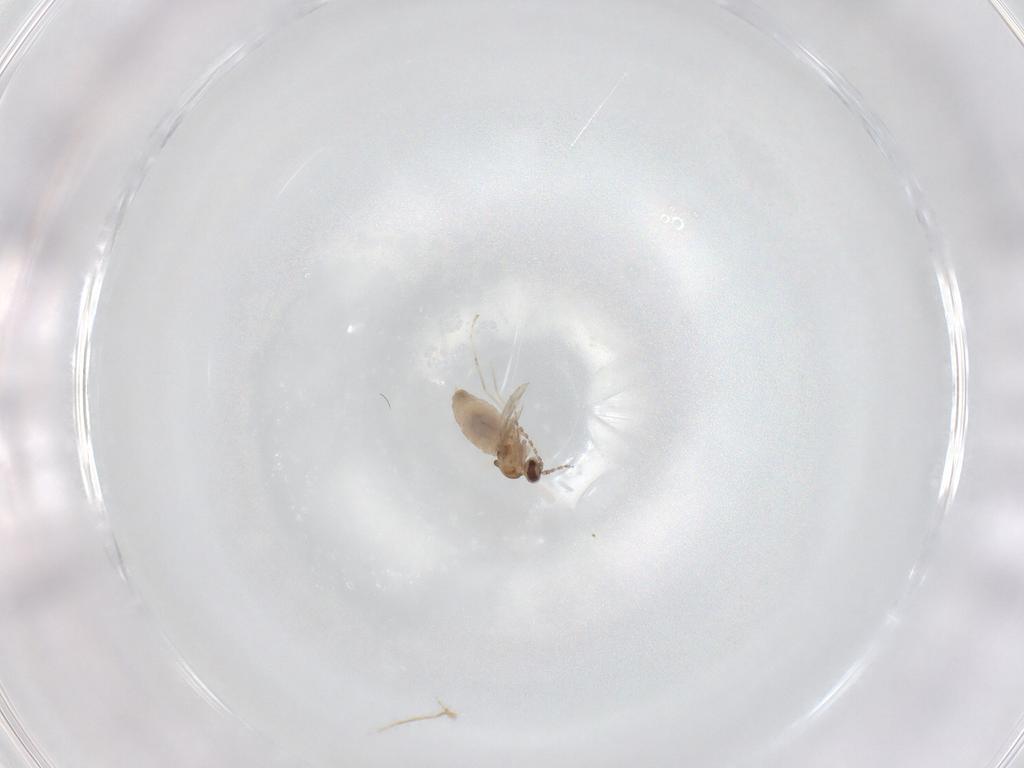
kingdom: Animalia
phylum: Arthropoda
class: Insecta
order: Diptera
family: Cecidomyiidae
